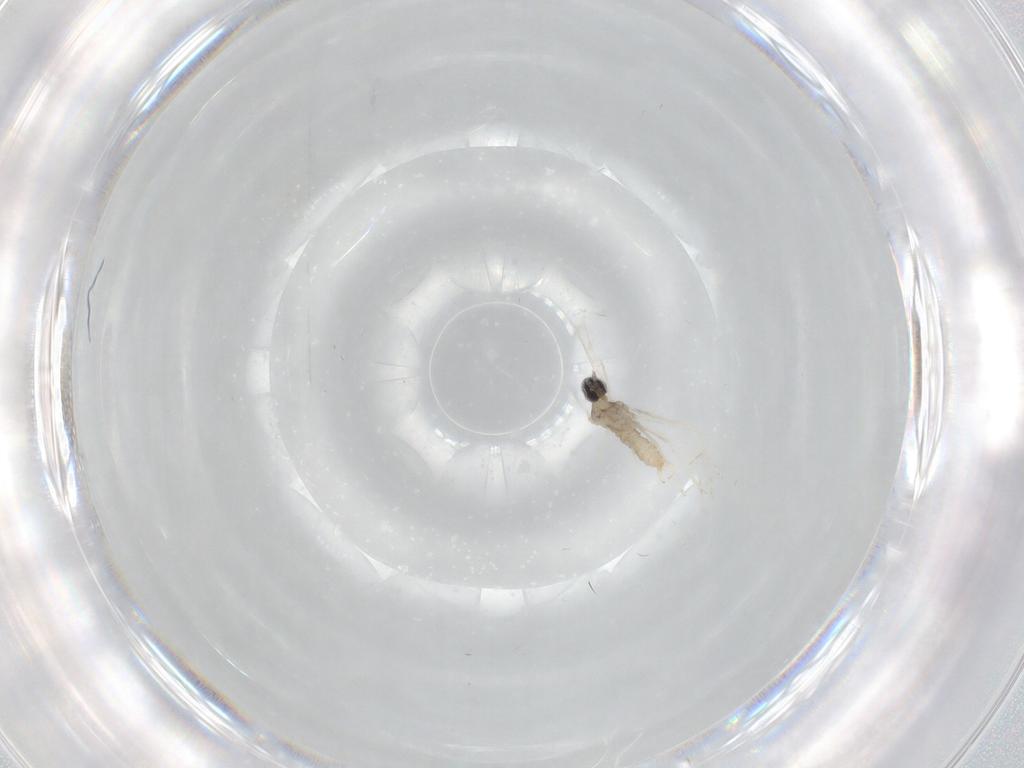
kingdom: Animalia
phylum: Arthropoda
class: Insecta
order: Diptera
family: Cecidomyiidae
